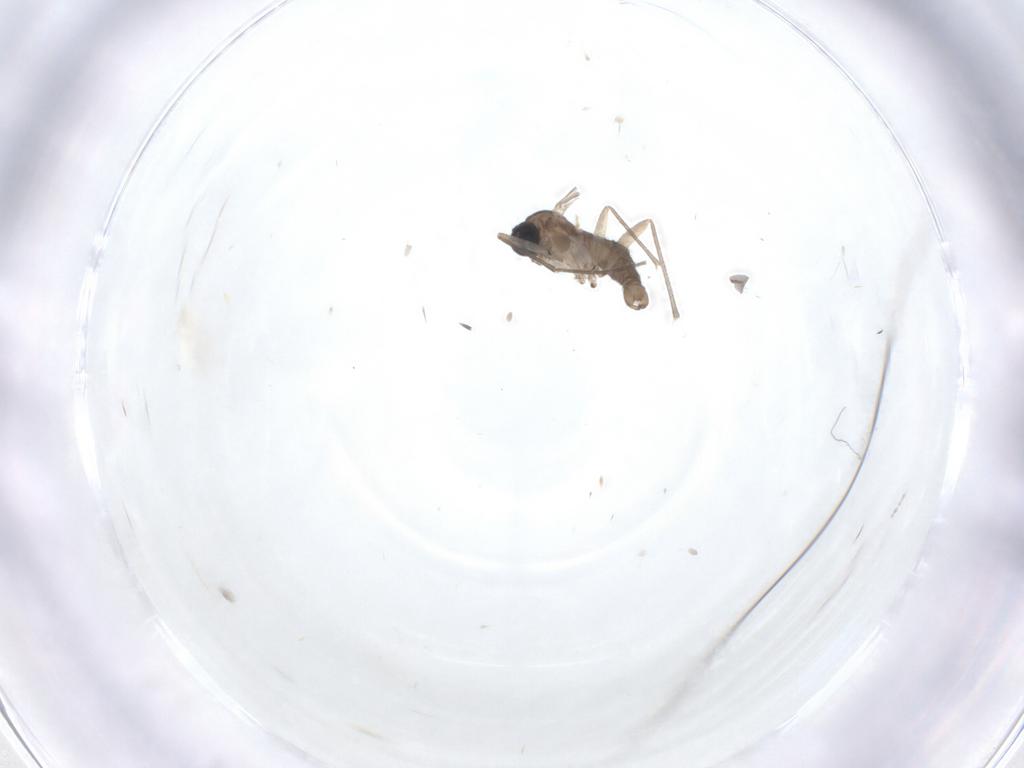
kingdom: Animalia
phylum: Arthropoda
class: Insecta
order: Diptera
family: Sciaridae
